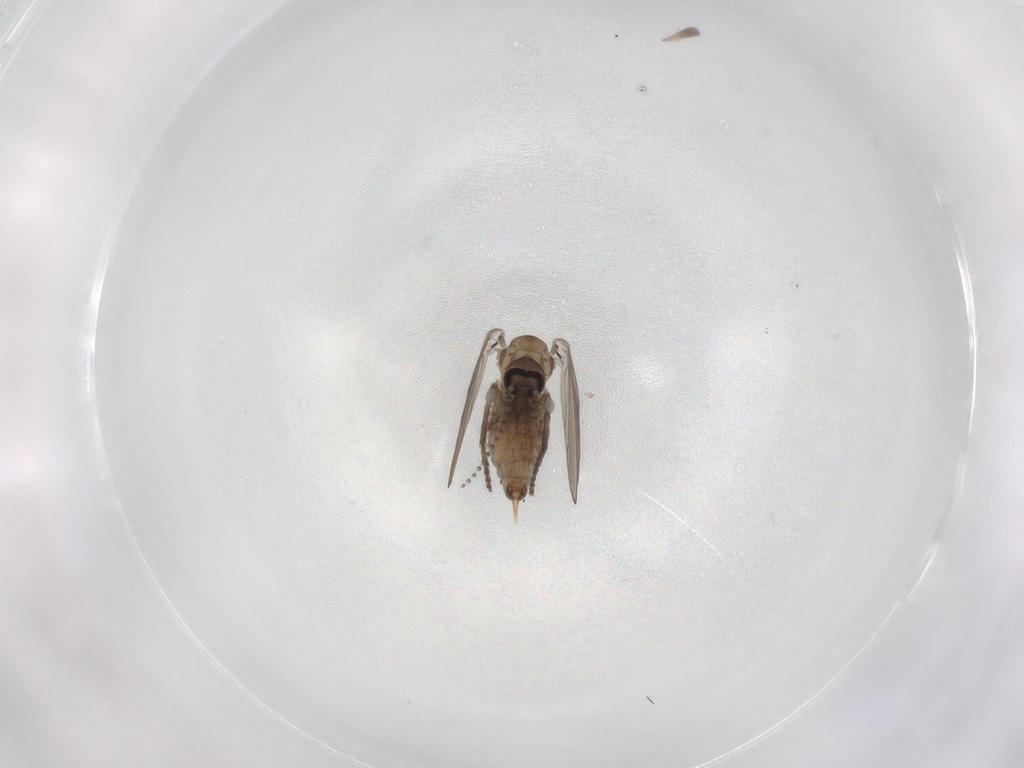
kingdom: Animalia
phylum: Arthropoda
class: Insecta
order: Diptera
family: Psychodidae
